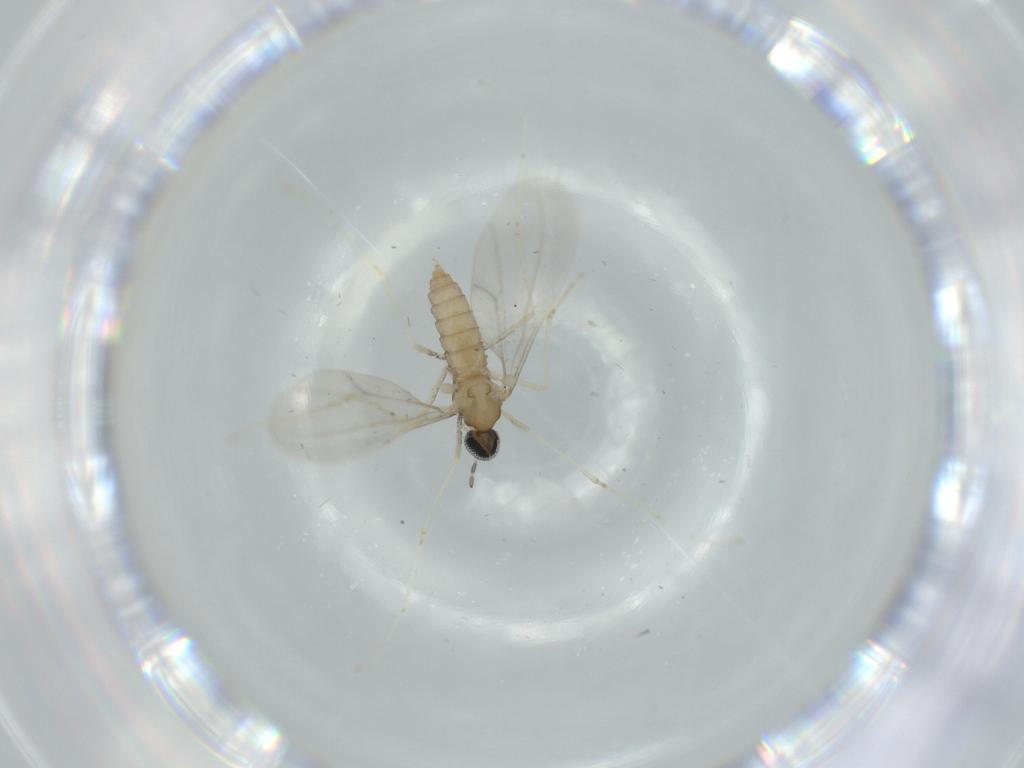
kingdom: Animalia
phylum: Arthropoda
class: Insecta
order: Diptera
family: Cecidomyiidae
